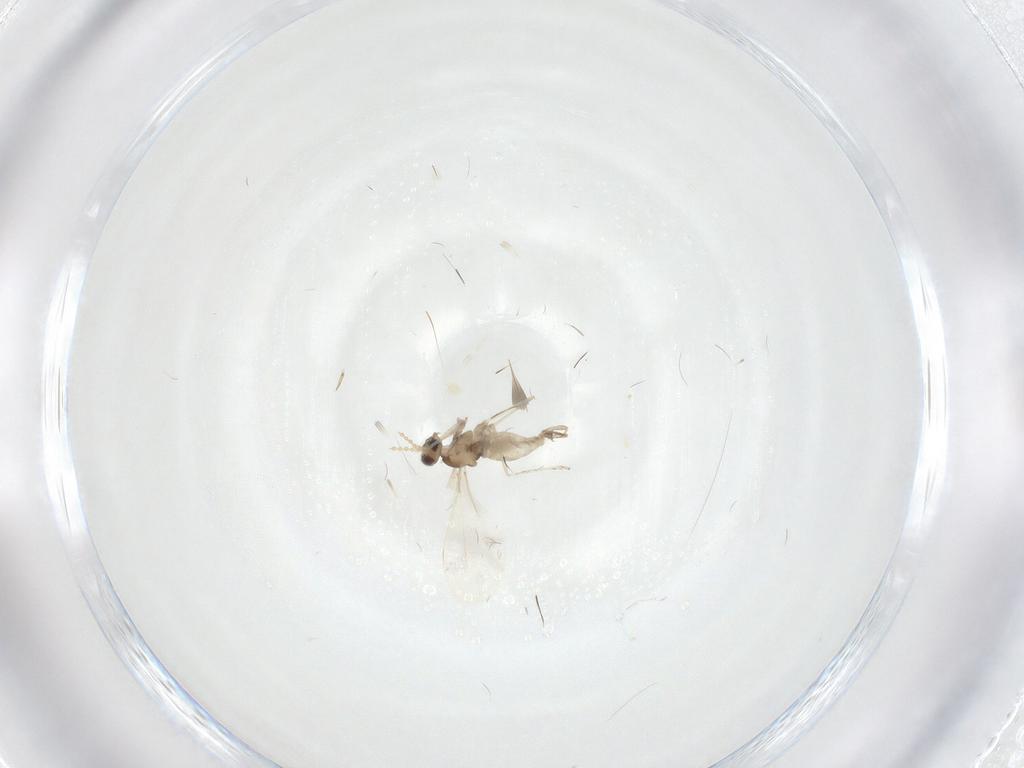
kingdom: Animalia
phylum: Arthropoda
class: Insecta
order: Diptera
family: Cecidomyiidae
